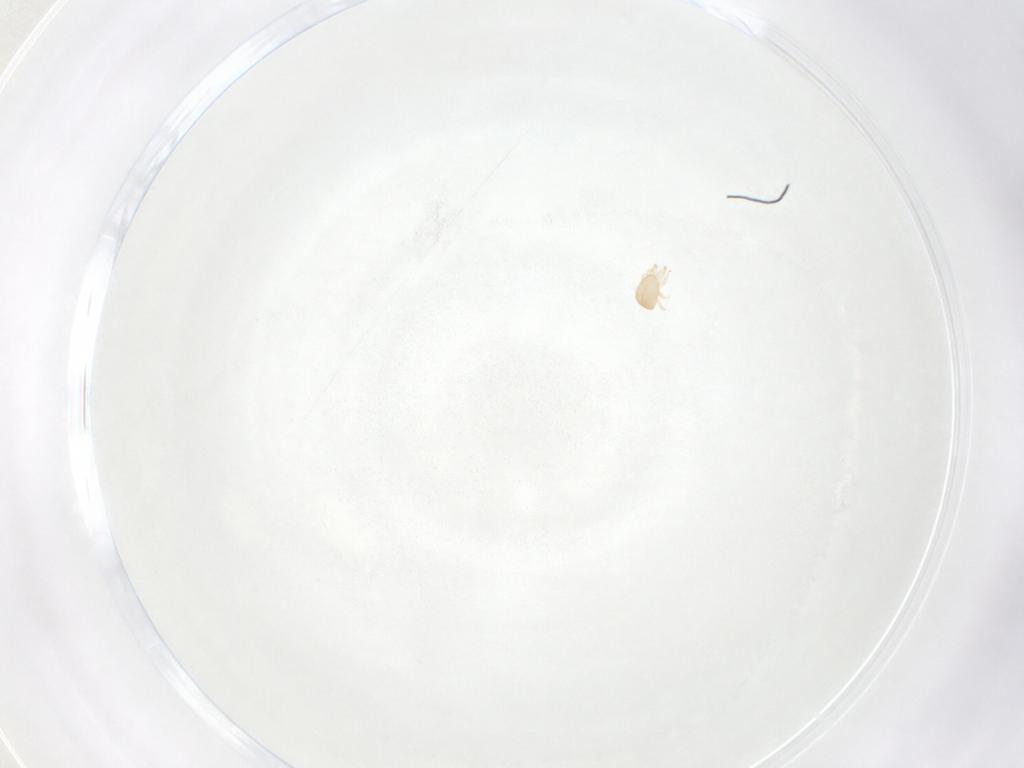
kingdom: Animalia
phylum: Arthropoda
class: Arachnida
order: Mesostigmata
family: Ascidae
